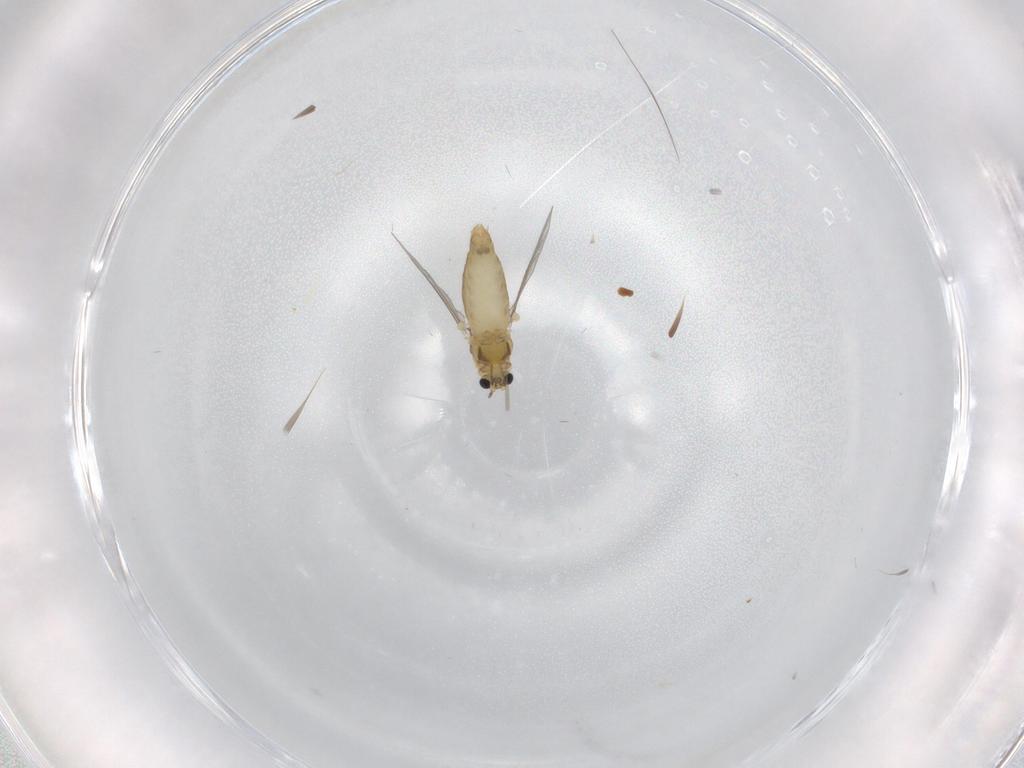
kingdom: Animalia
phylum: Arthropoda
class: Insecta
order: Diptera
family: Chironomidae
